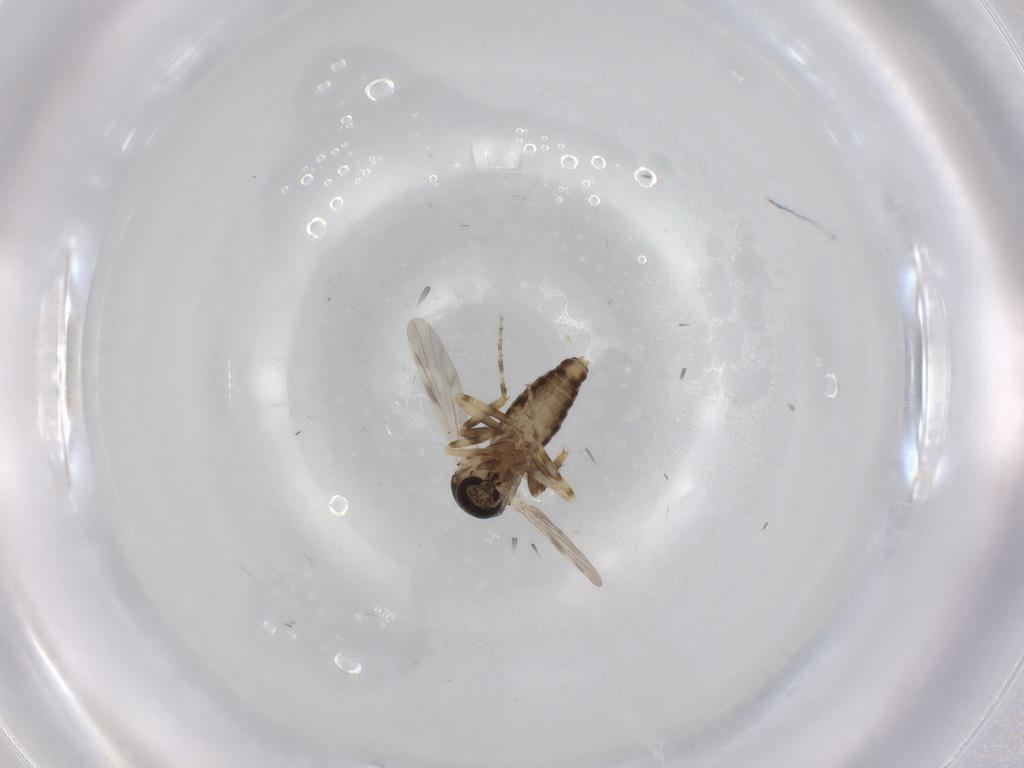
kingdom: Animalia
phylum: Arthropoda
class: Insecta
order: Diptera
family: Ceratopogonidae
